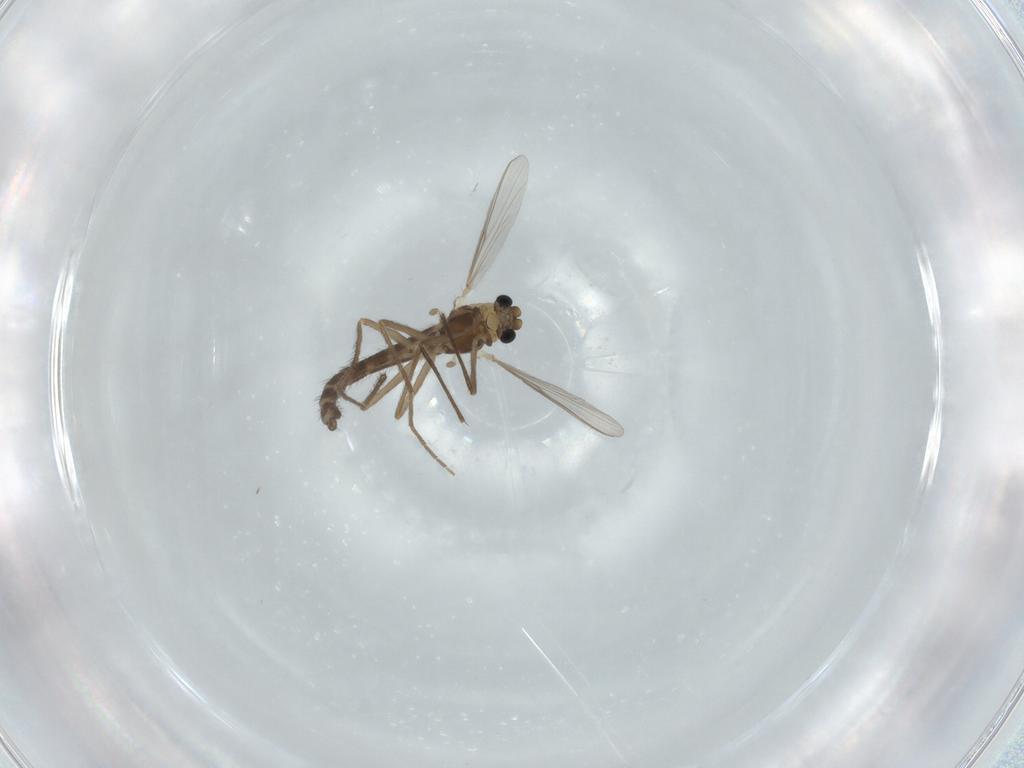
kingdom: Animalia
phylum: Arthropoda
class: Insecta
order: Diptera
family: Chironomidae
